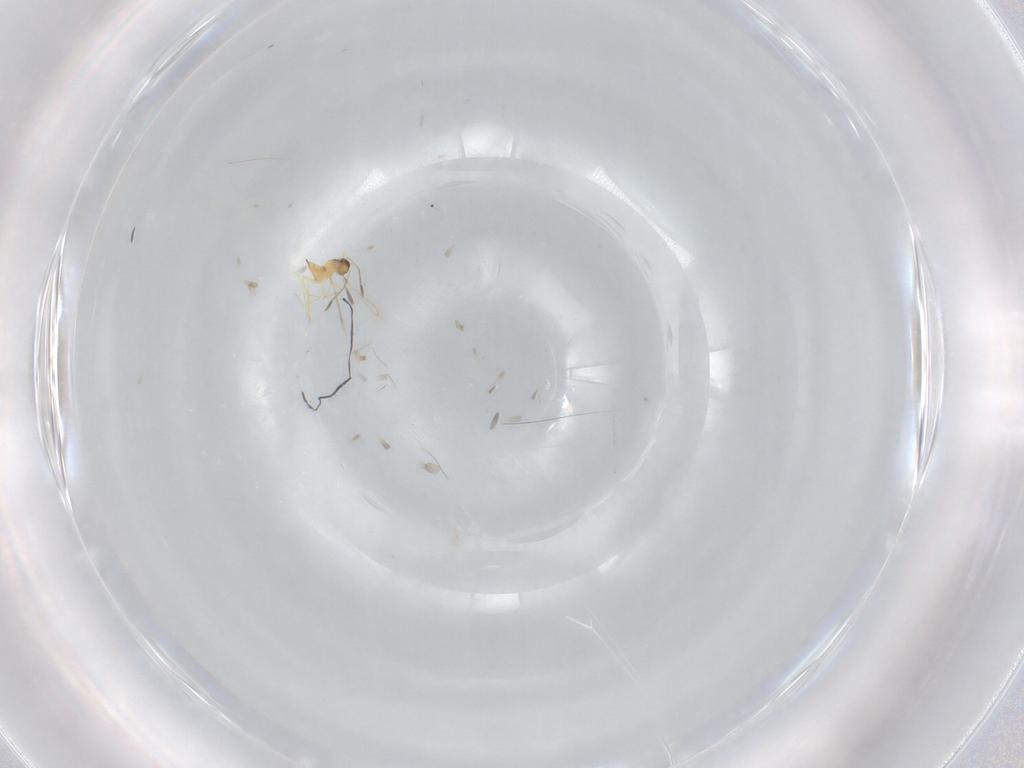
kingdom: Animalia
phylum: Arthropoda
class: Insecta
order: Hymenoptera
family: Mymaridae
